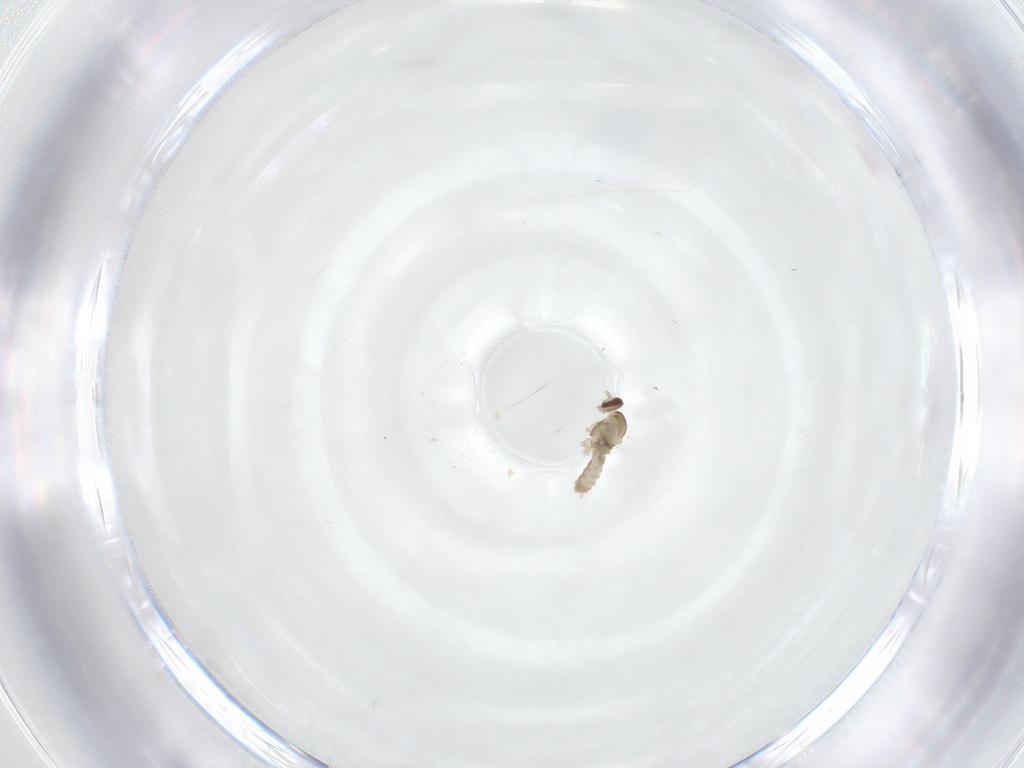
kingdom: Animalia
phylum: Arthropoda
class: Insecta
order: Diptera
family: Cecidomyiidae
